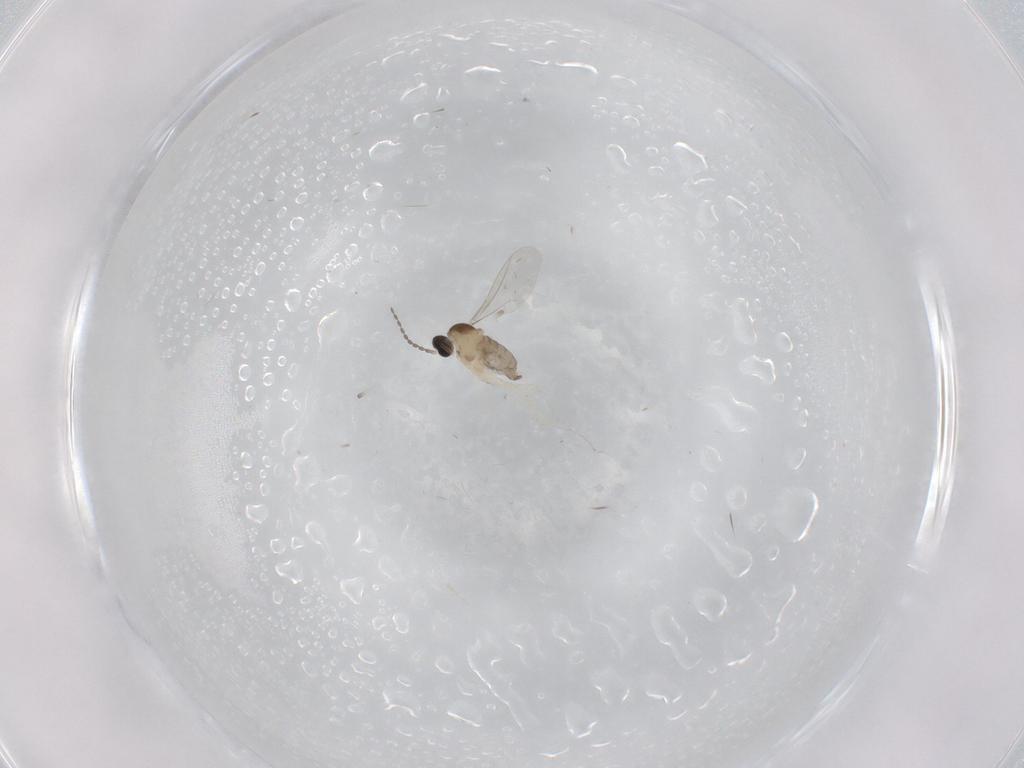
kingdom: Animalia
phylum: Arthropoda
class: Insecta
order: Diptera
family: Cecidomyiidae
